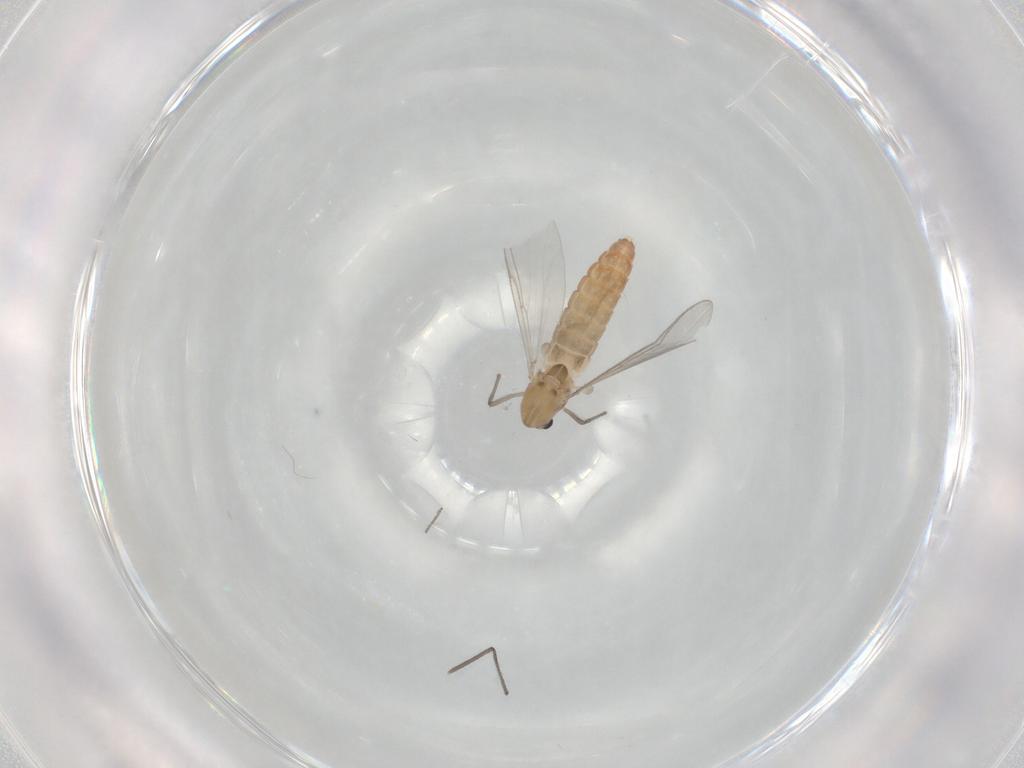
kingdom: Animalia
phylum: Arthropoda
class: Insecta
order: Diptera
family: Chironomidae
